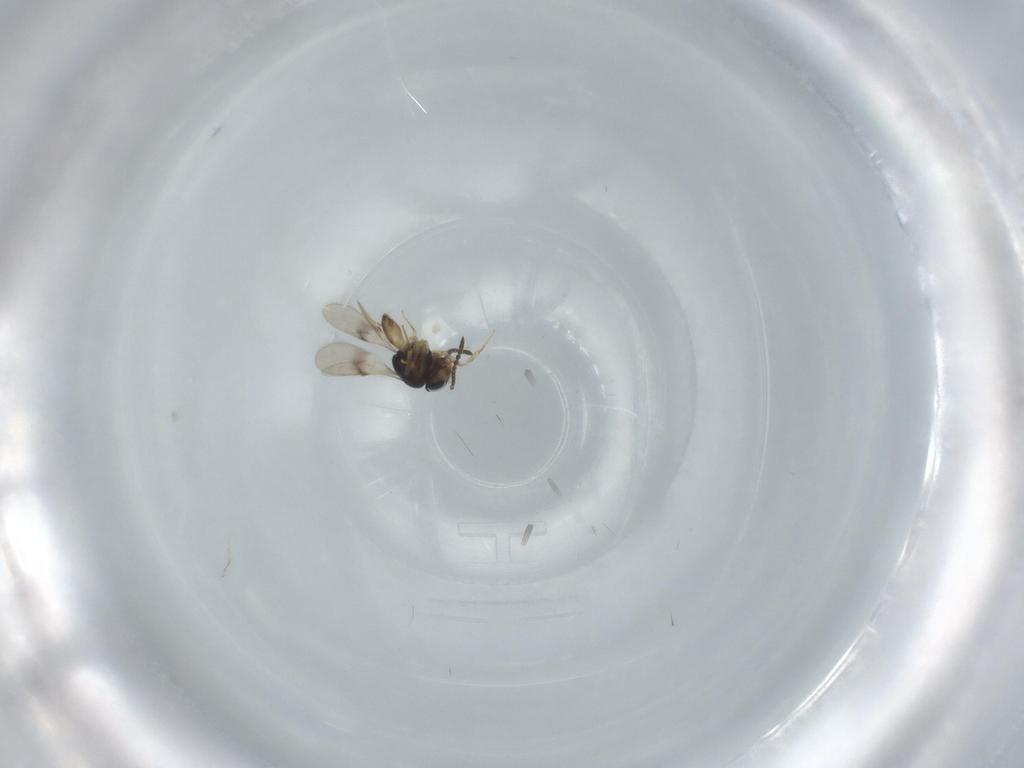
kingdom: Animalia
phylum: Arthropoda
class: Insecta
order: Hymenoptera
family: Scelionidae
